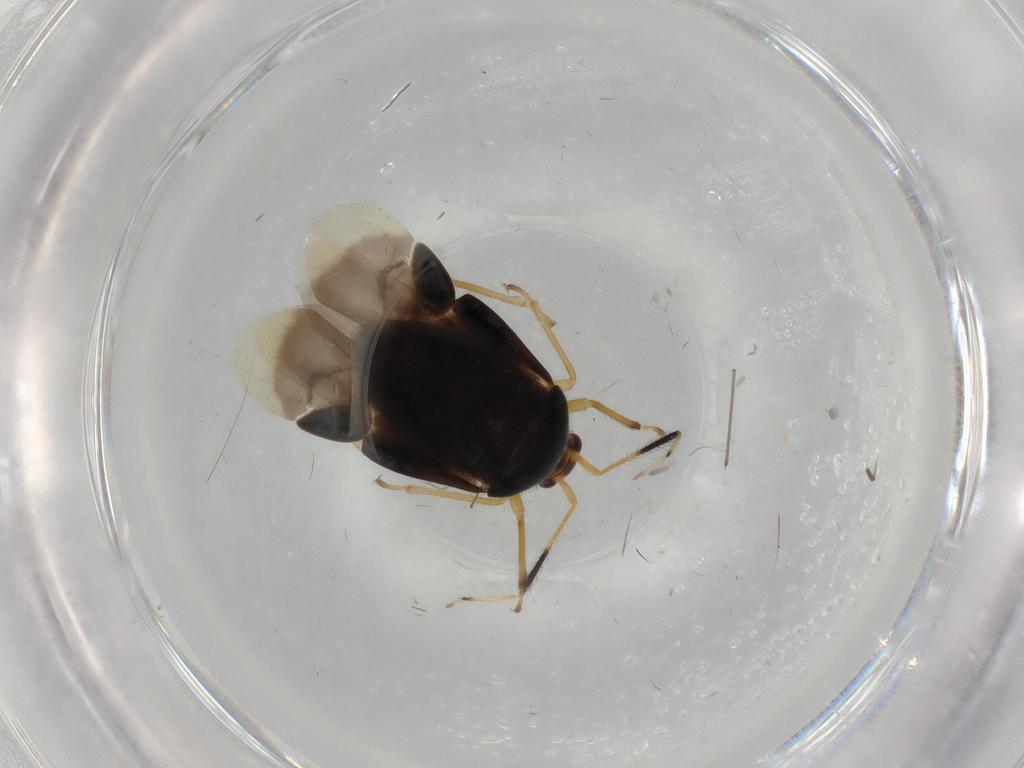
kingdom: Animalia
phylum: Arthropoda
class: Insecta
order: Hemiptera
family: Miridae
